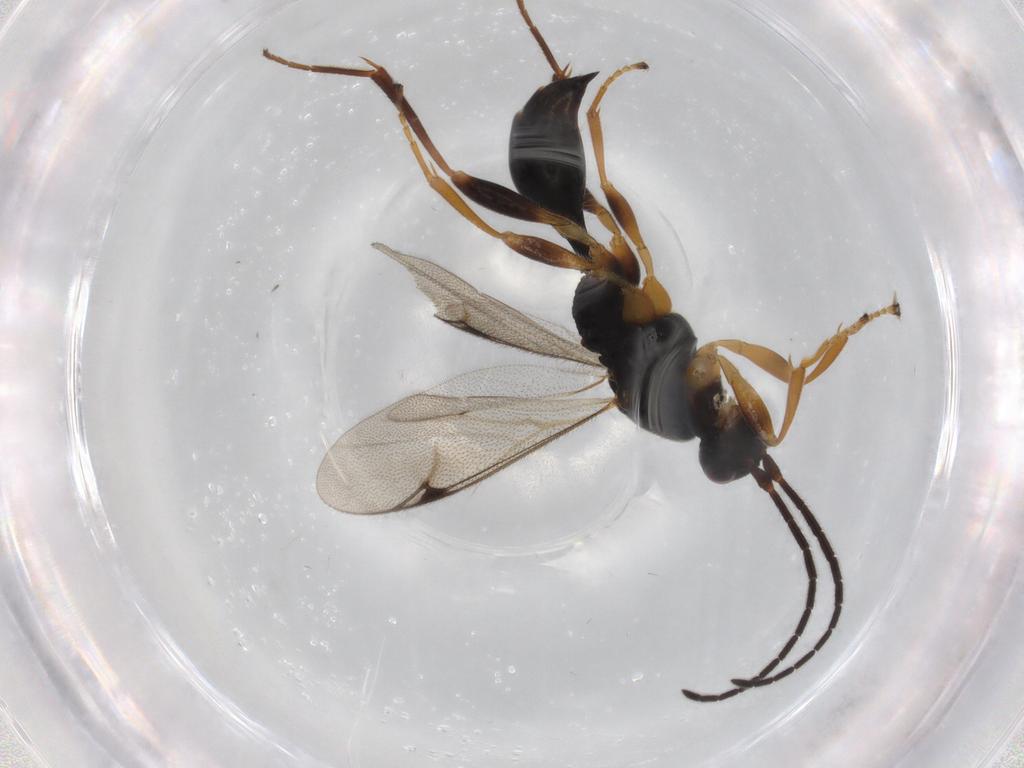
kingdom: Animalia
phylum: Arthropoda
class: Insecta
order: Hymenoptera
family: Proctotrupidae
